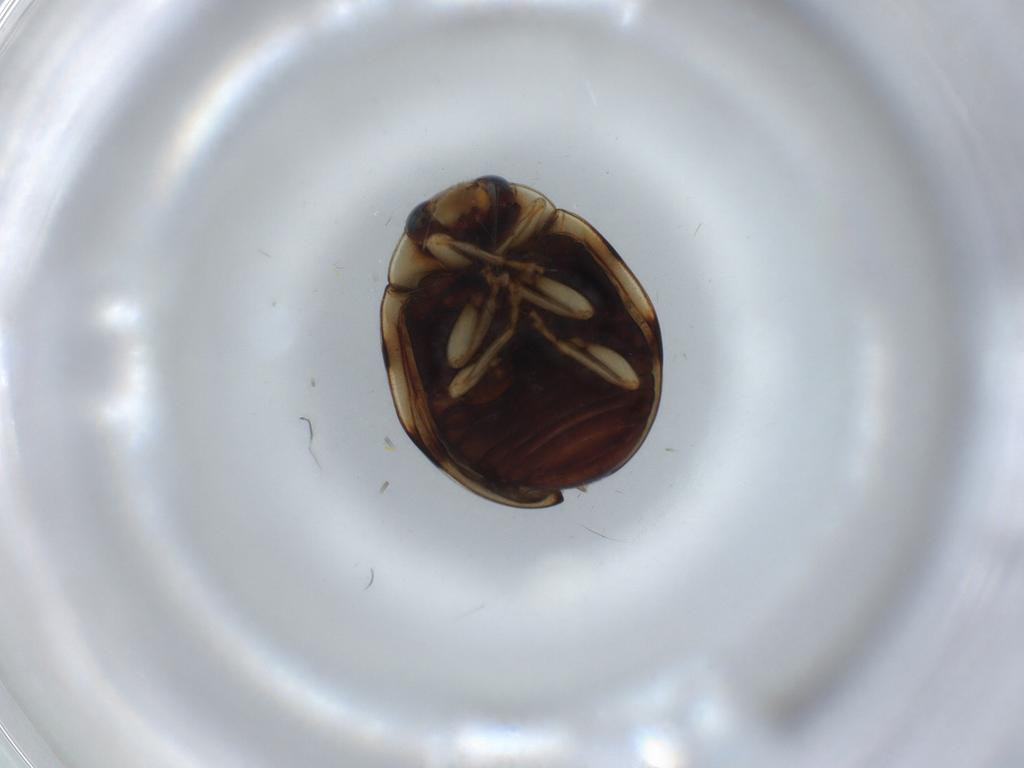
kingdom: Animalia
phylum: Arthropoda
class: Insecta
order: Coleoptera
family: Coccinellidae
